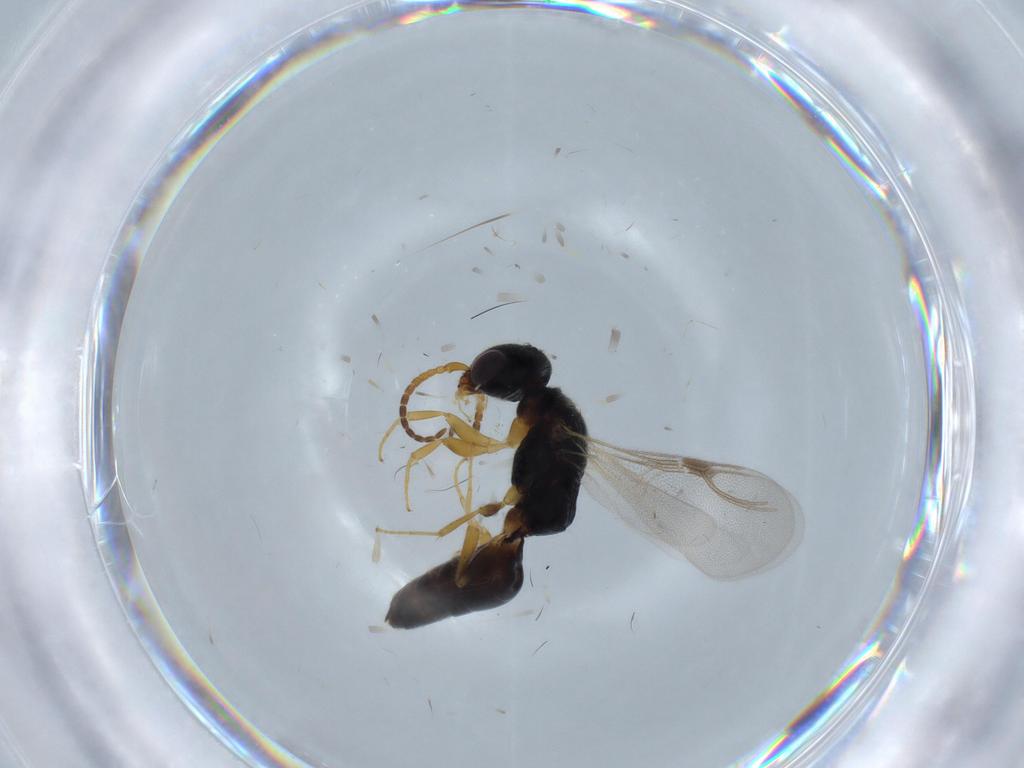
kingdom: Animalia
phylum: Arthropoda
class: Insecta
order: Hymenoptera
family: Bethylidae
